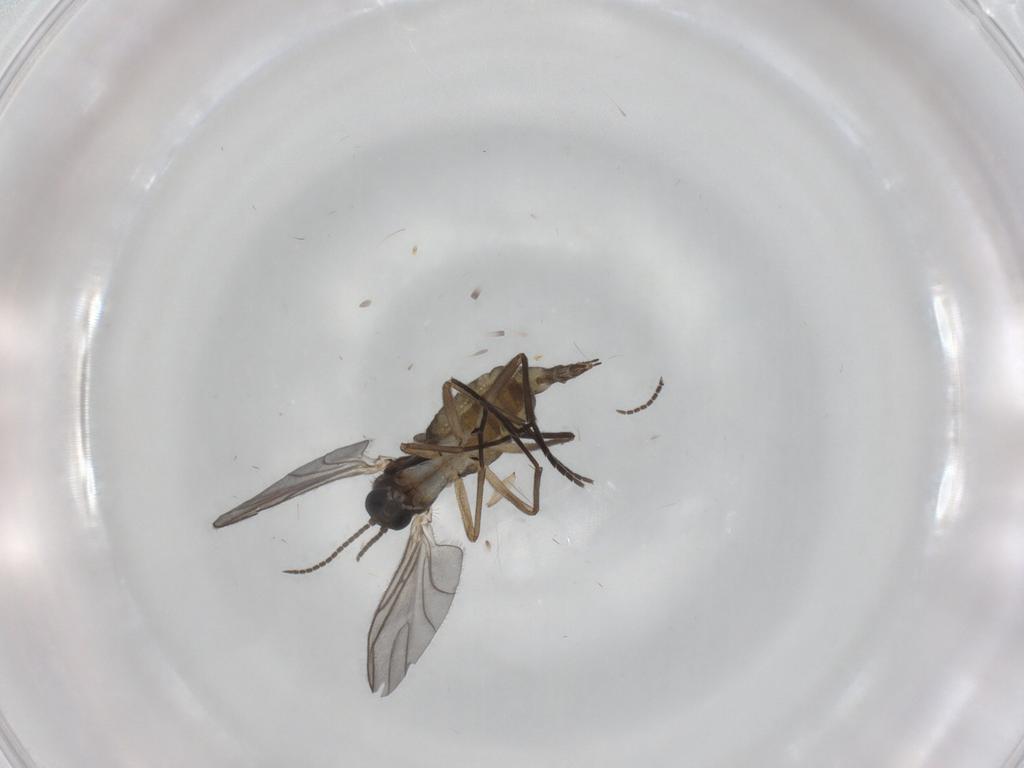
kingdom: Animalia
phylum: Arthropoda
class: Insecta
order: Diptera
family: Sciaridae
